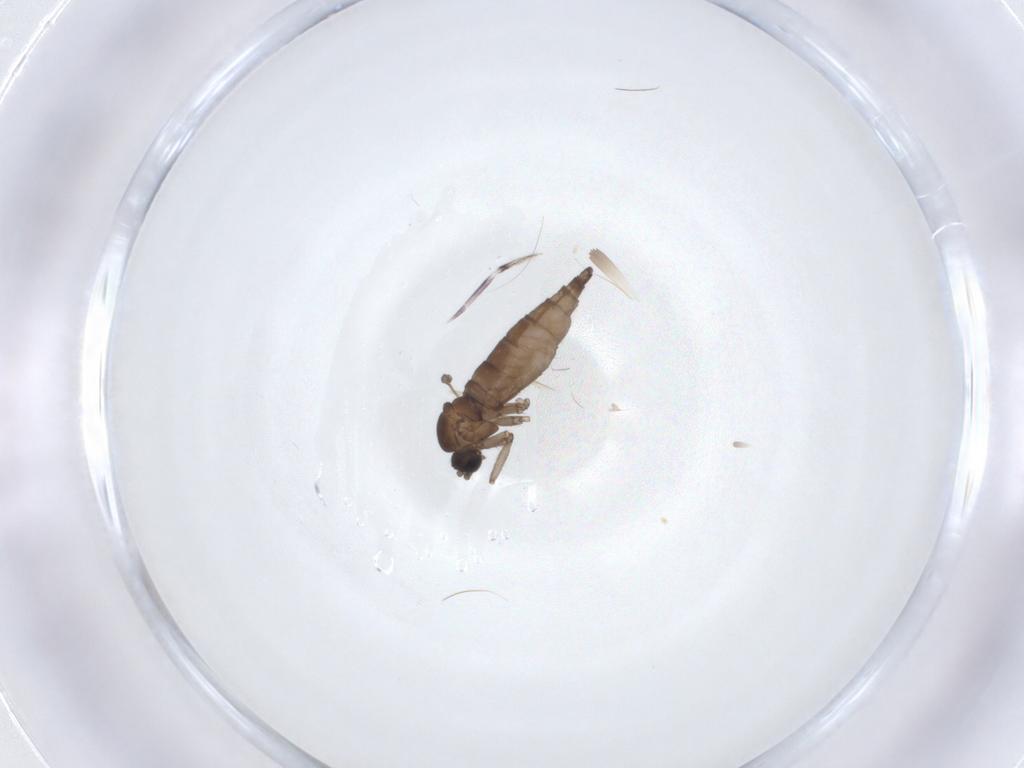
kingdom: Animalia
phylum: Arthropoda
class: Insecta
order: Diptera
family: Sciaridae
